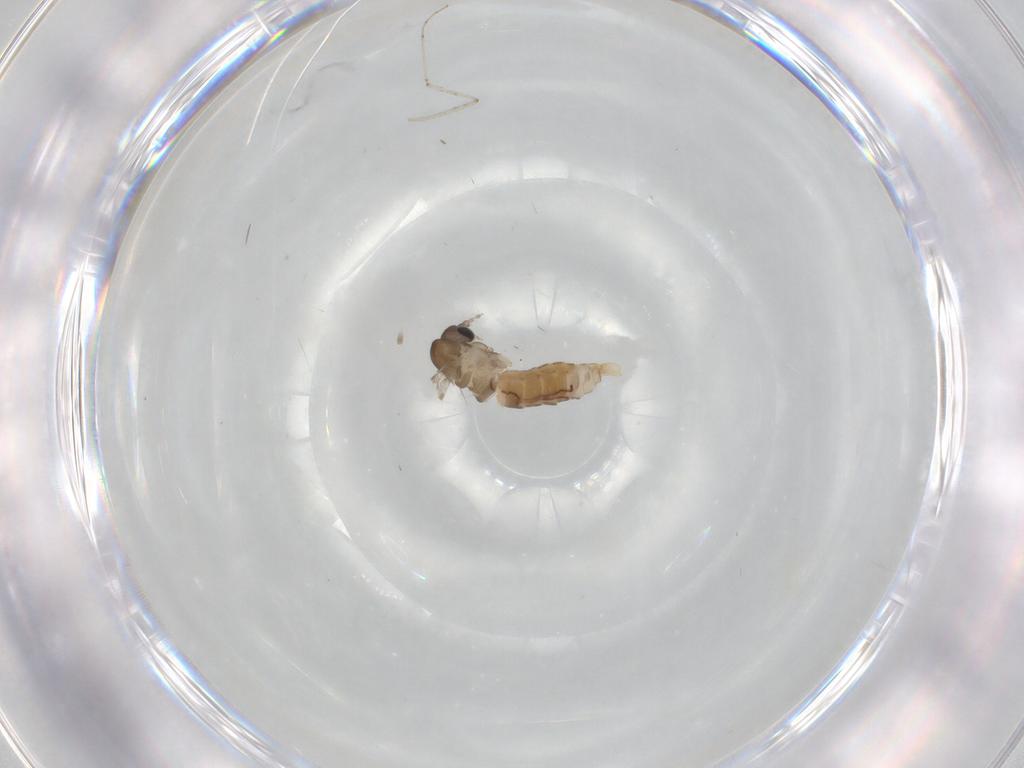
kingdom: Animalia
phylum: Arthropoda
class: Insecta
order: Diptera
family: Psychodidae
